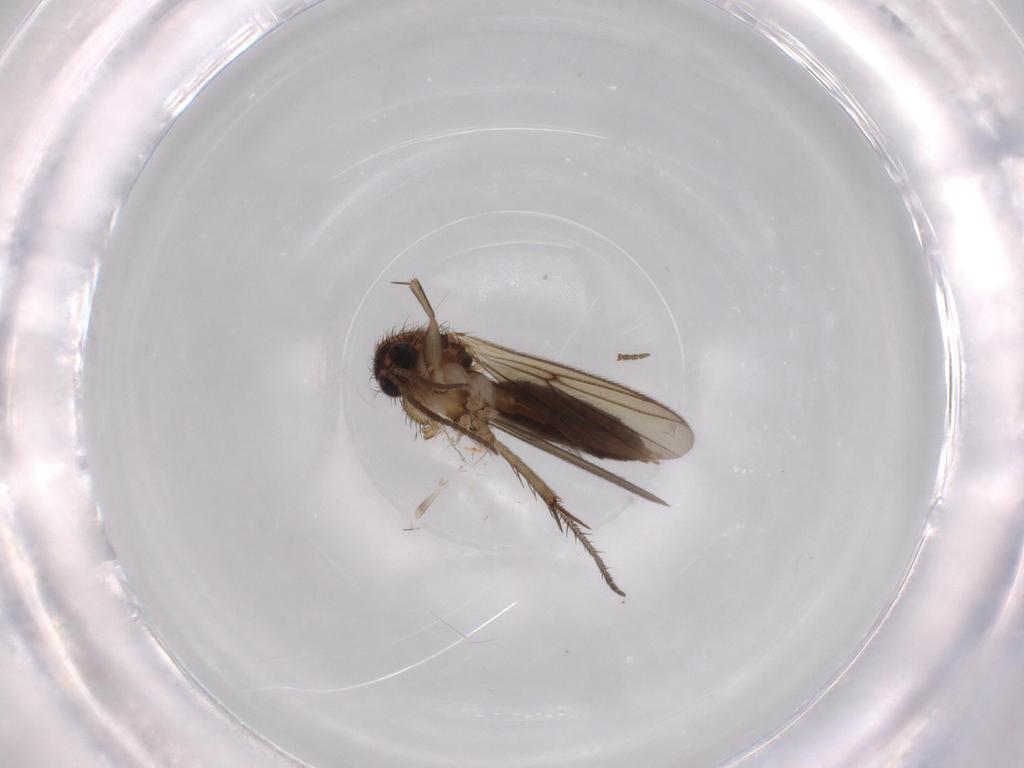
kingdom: Animalia
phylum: Arthropoda
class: Insecta
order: Diptera
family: Mycetophilidae
